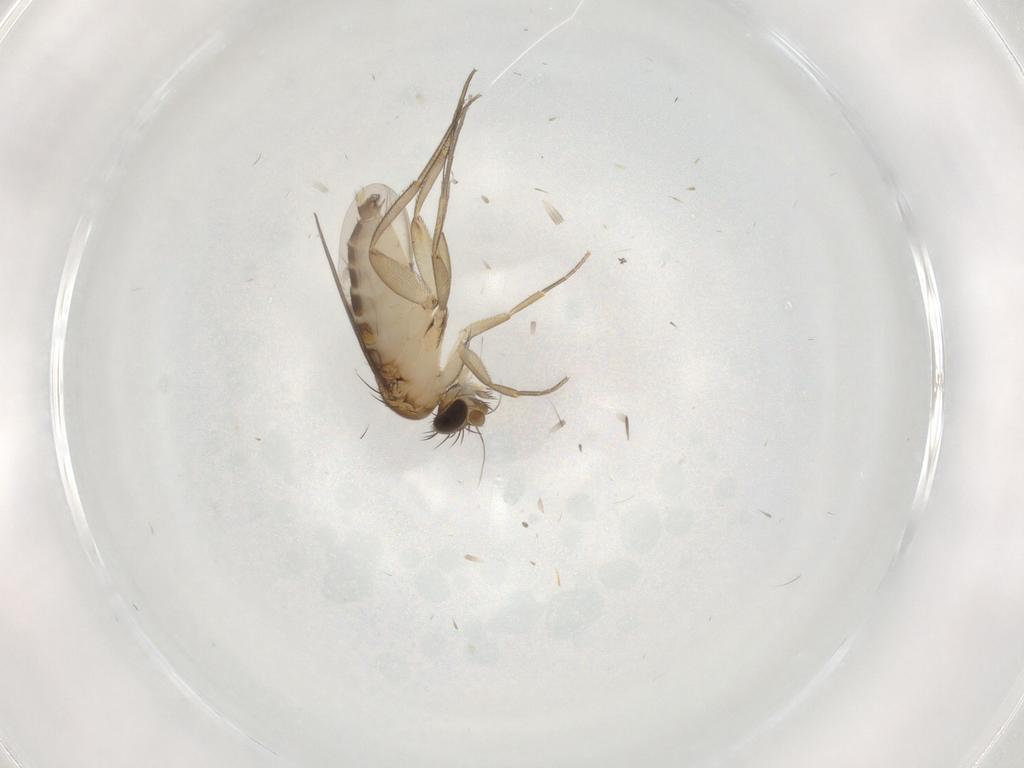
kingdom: Animalia
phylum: Arthropoda
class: Insecta
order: Diptera
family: Phoridae
